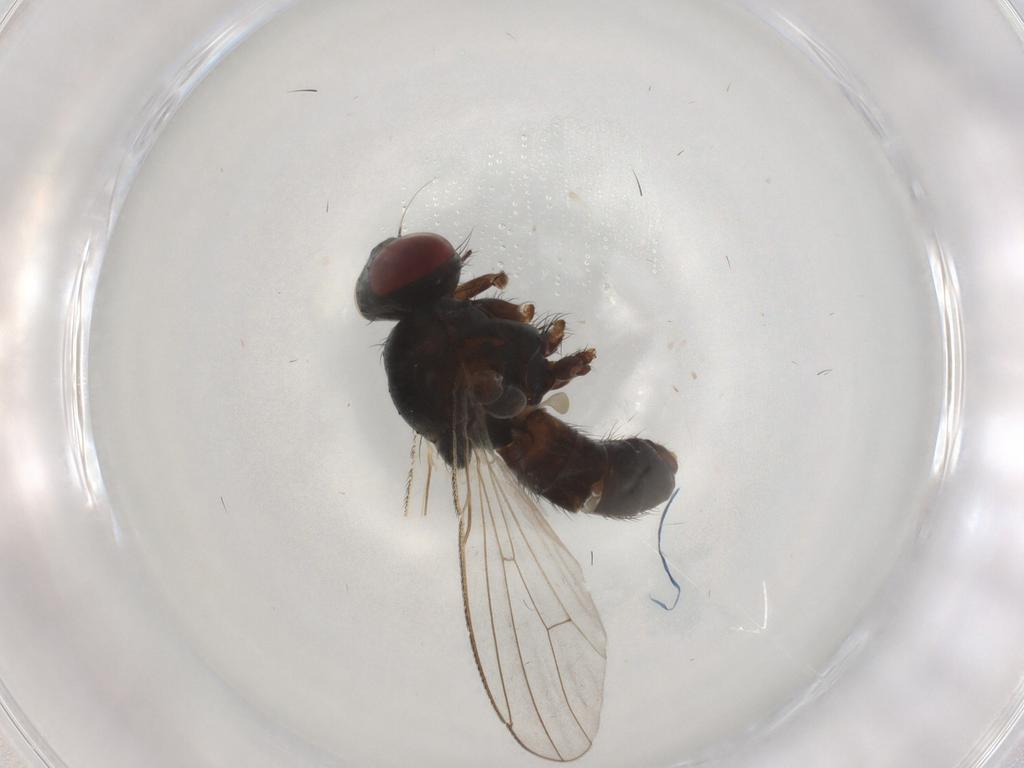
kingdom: Animalia
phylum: Arthropoda
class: Insecta
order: Diptera
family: Muscidae
